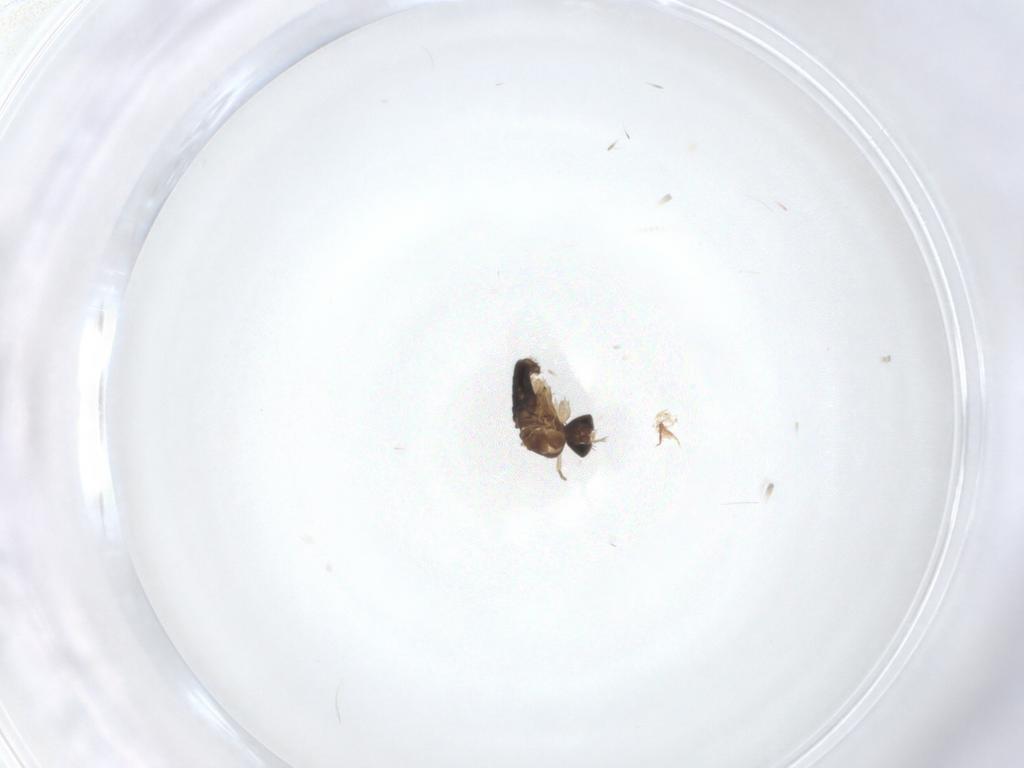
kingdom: Animalia
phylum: Arthropoda
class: Insecta
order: Diptera
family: Phoridae
